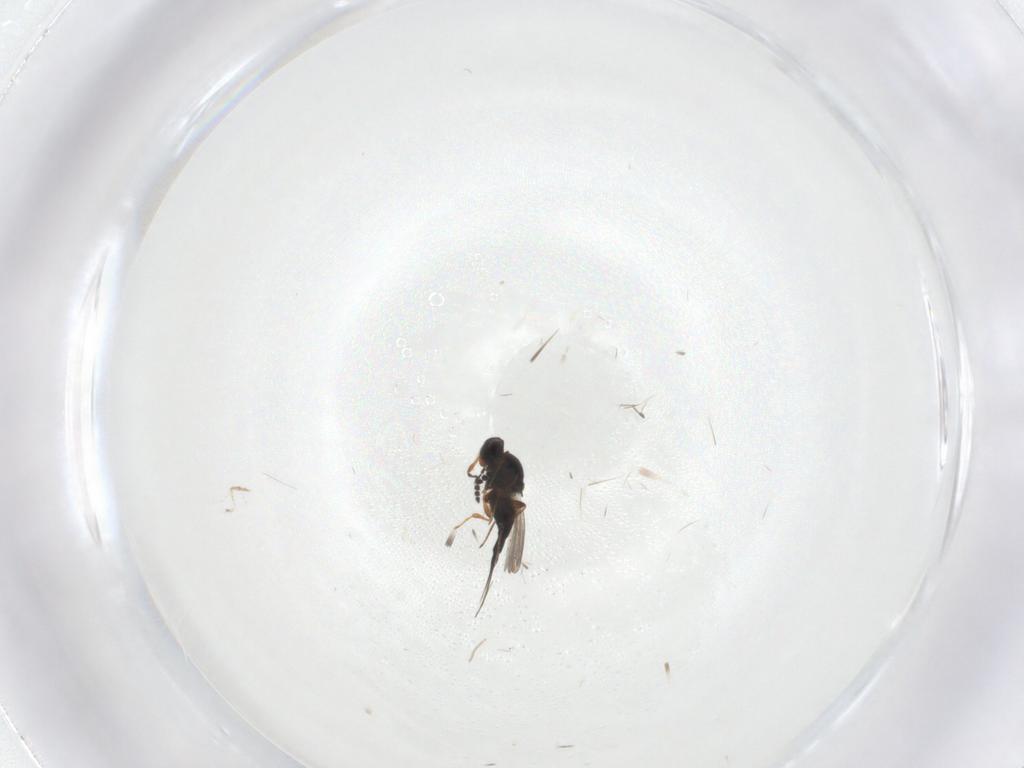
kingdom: Animalia
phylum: Arthropoda
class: Insecta
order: Hymenoptera
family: Platygastridae
